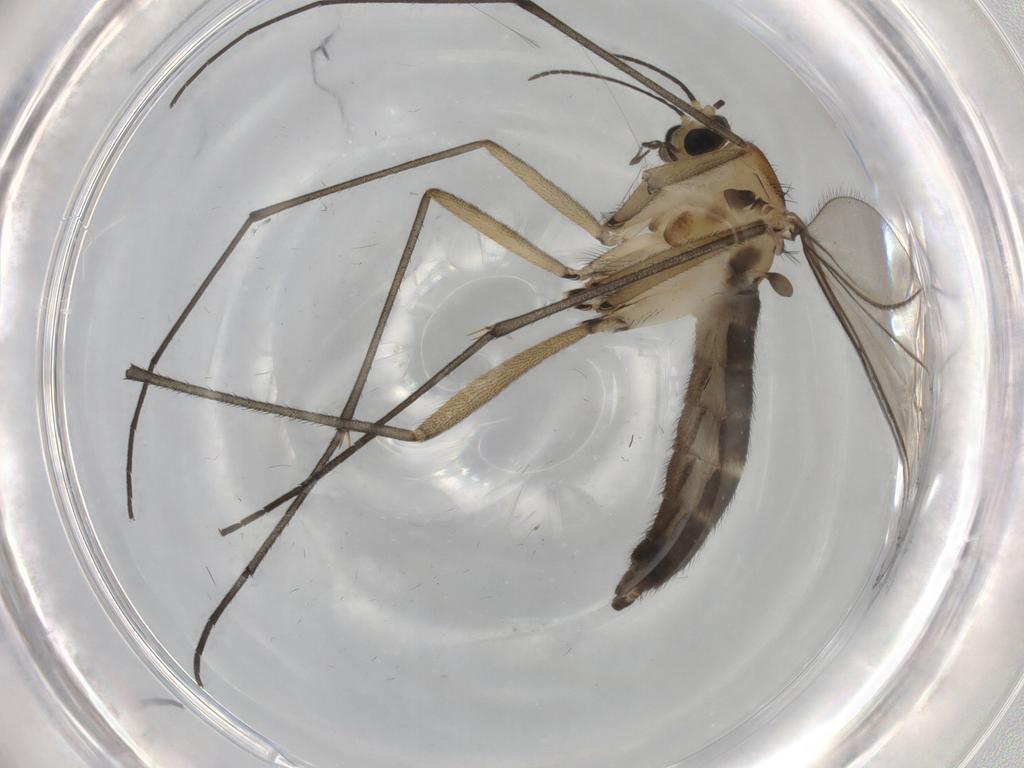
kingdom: Animalia
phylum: Arthropoda
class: Insecta
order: Diptera
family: Sciaridae
